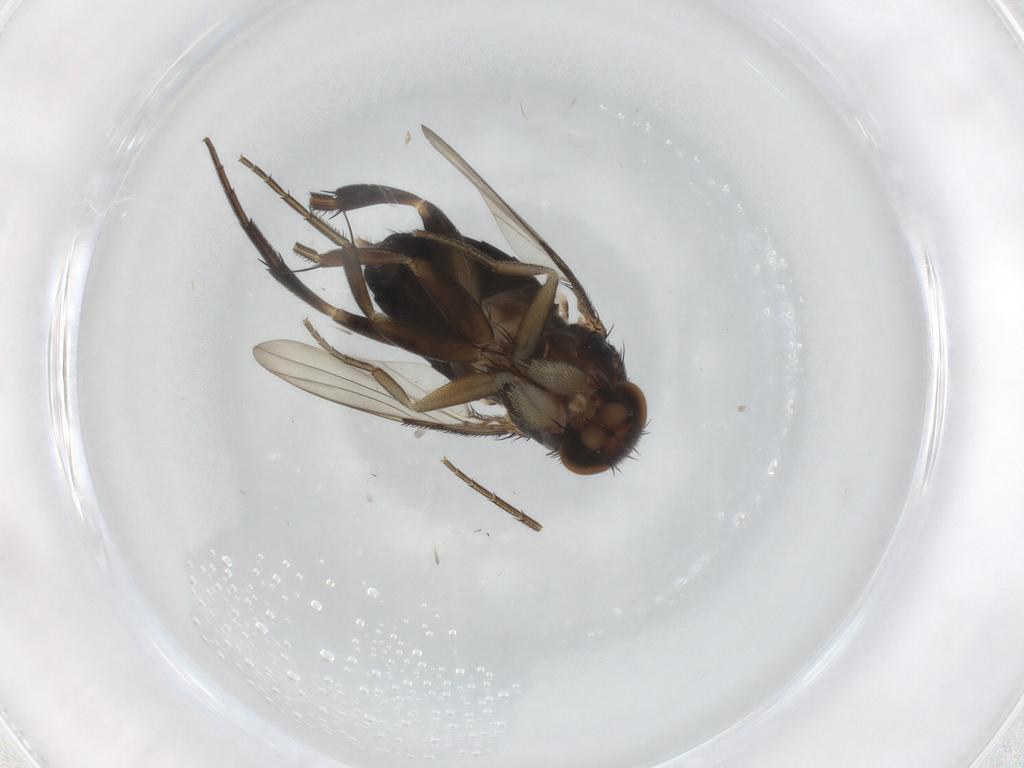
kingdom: Animalia
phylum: Arthropoda
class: Insecta
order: Diptera
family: Phoridae
